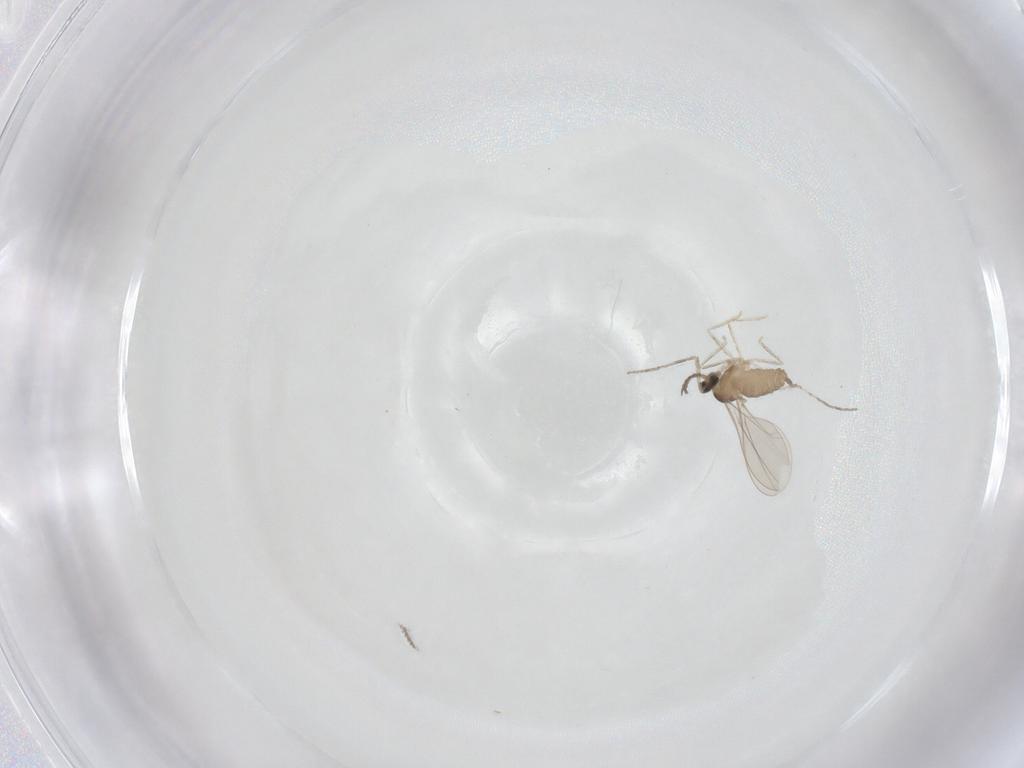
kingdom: Animalia
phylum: Arthropoda
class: Insecta
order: Diptera
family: Cecidomyiidae
